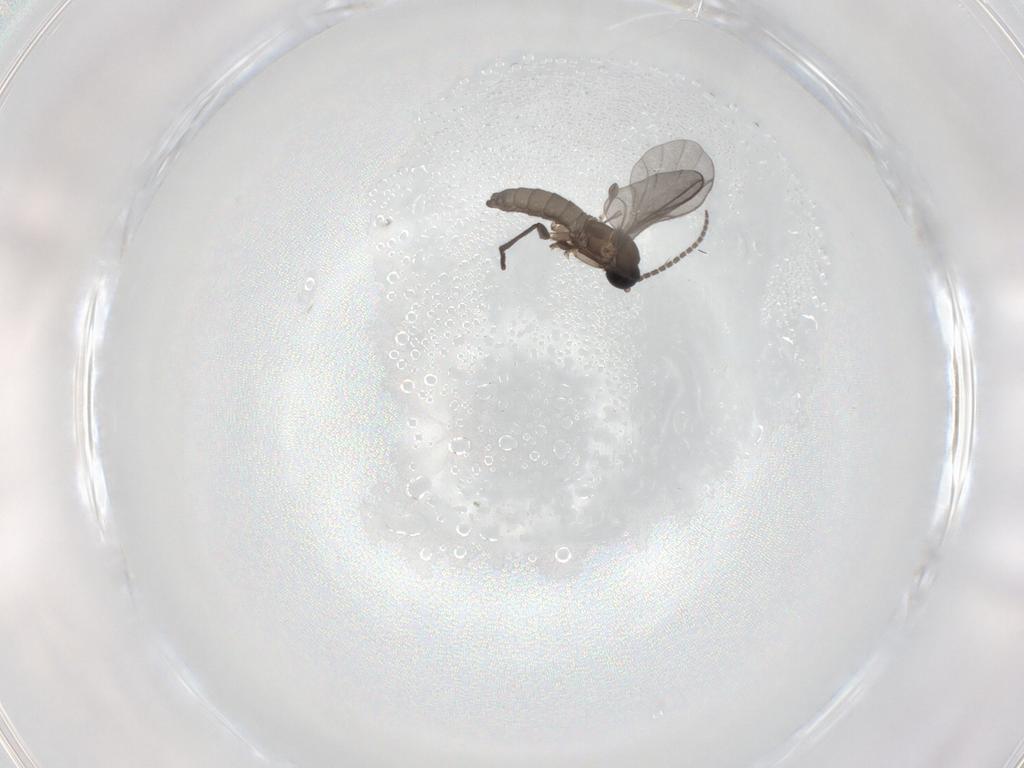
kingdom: Animalia
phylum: Arthropoda
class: Insecta
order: Diptera
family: Sciaridae
